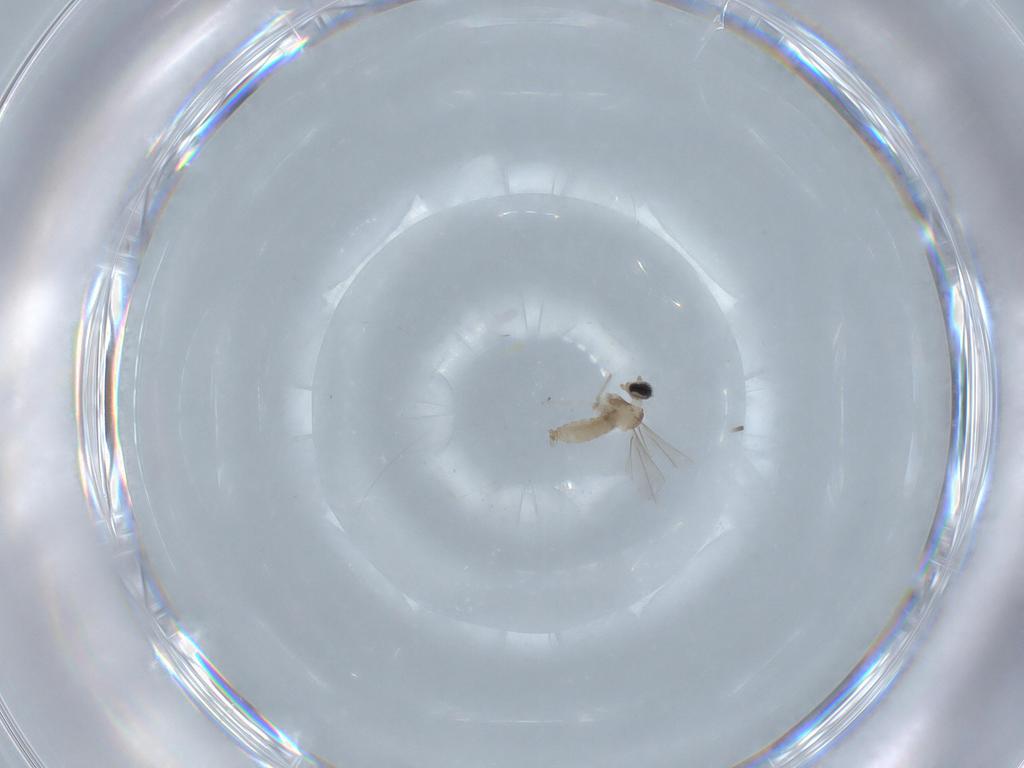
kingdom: Animalia
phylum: Arthropoda
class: Insecta
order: Diptera
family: Cecidomyiidae
